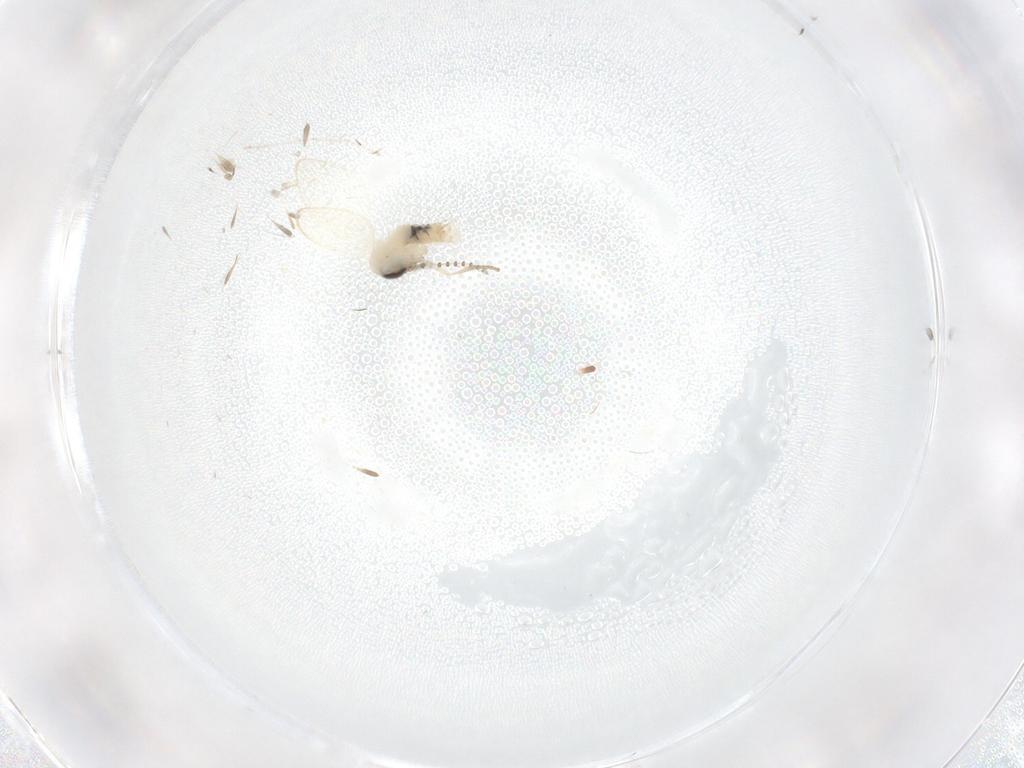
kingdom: Animalia
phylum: Arthropoda
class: Insecta
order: Diptera
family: Psychodidae
